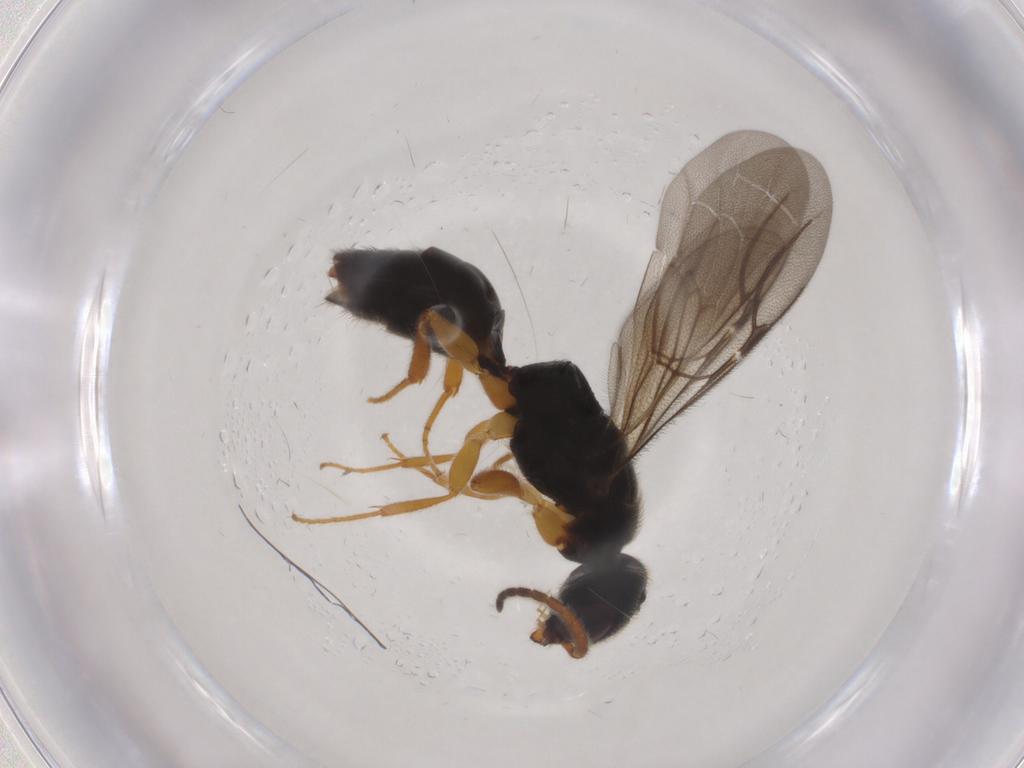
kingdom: Animalia
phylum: Arthropoda
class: Insecta
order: Hymenoptera
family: Bethylidae
